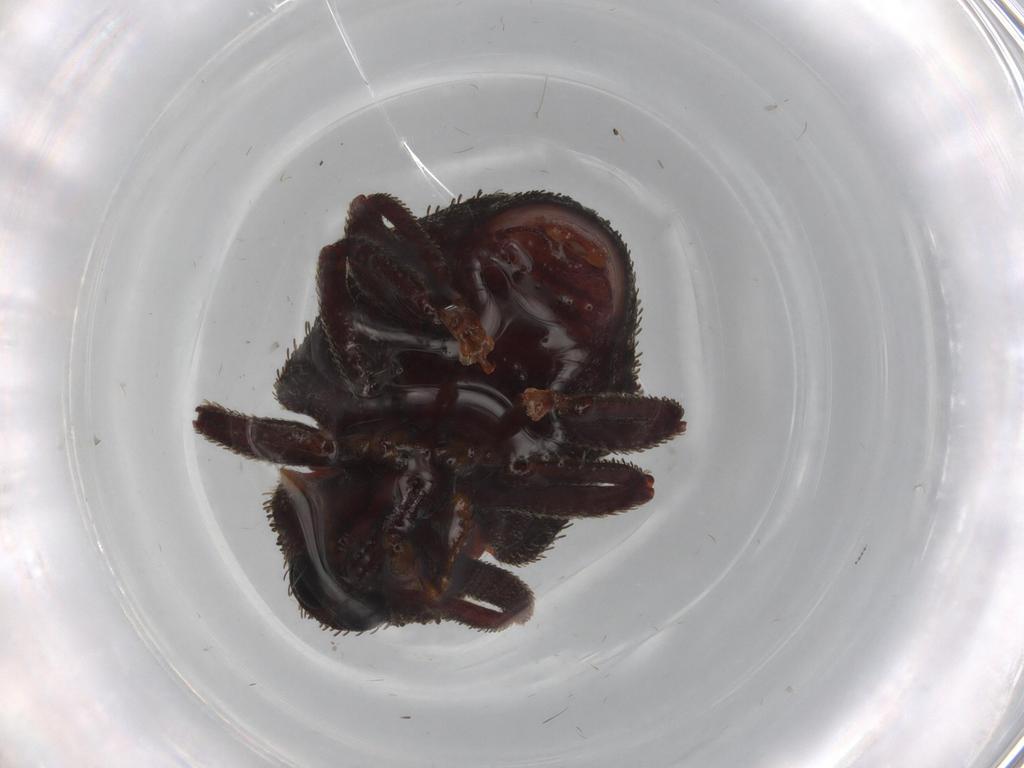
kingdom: Animalia
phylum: Arthropoda
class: Insecta
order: Coleoptera
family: Curculionidae
